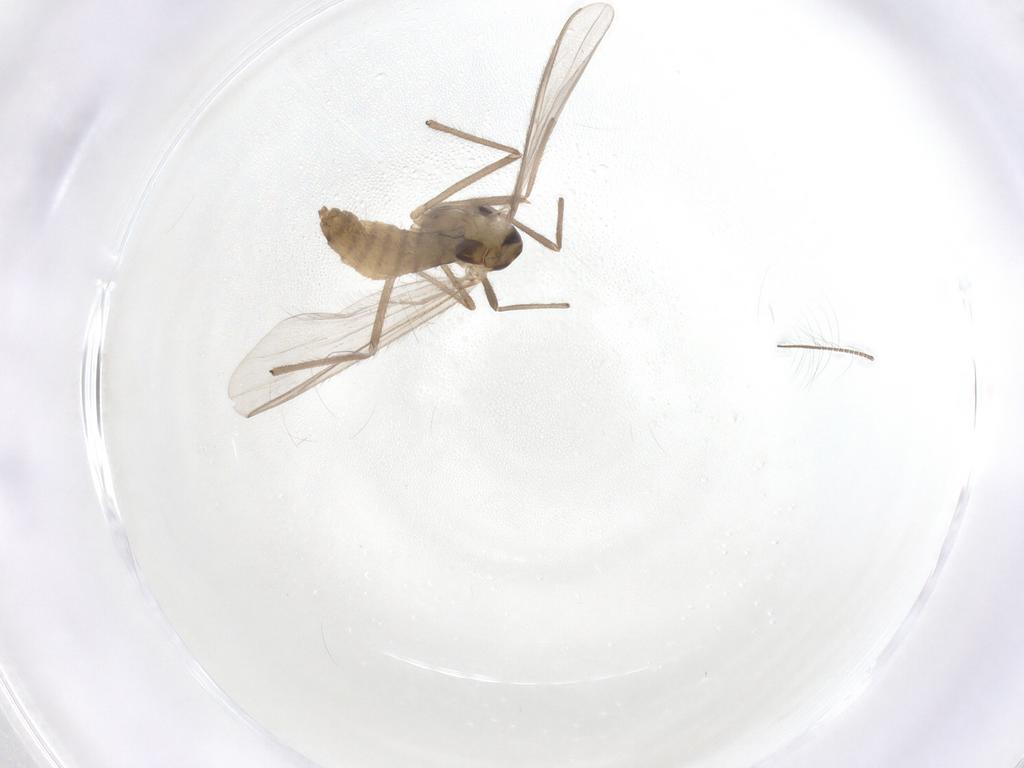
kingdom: Animalia
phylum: Arthropoda
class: Insecta
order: Diptera
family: Chironomidae
